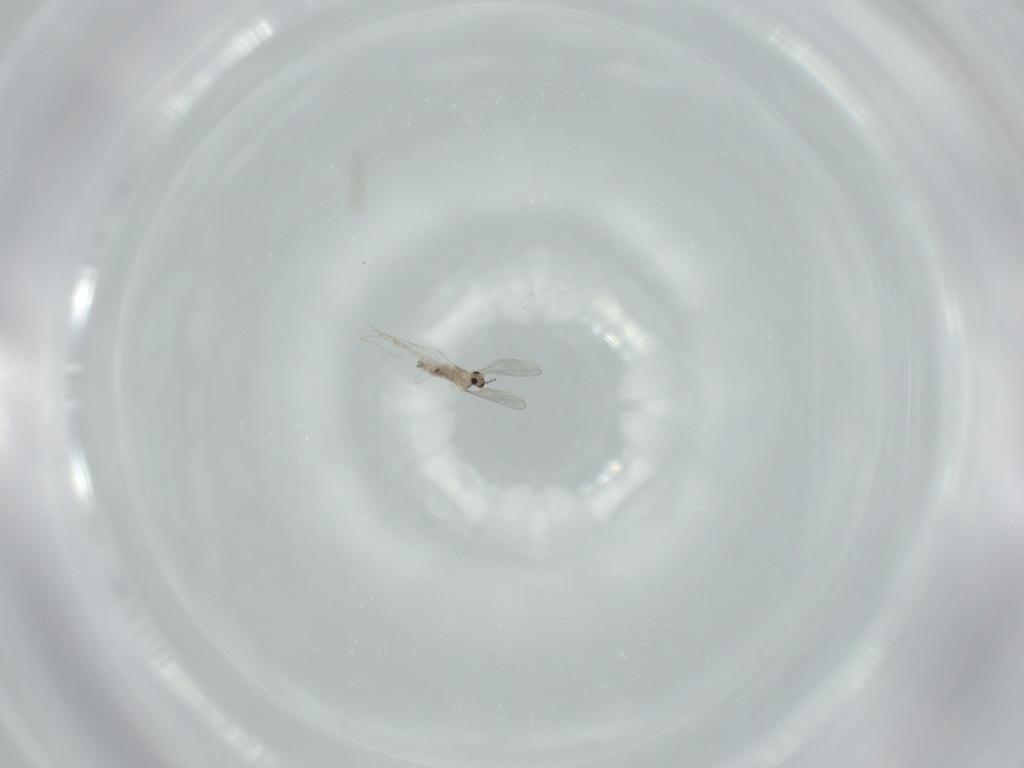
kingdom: Animalia
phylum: Arthropoda
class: Insecta
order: Diptera
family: Cecidomyiidae
